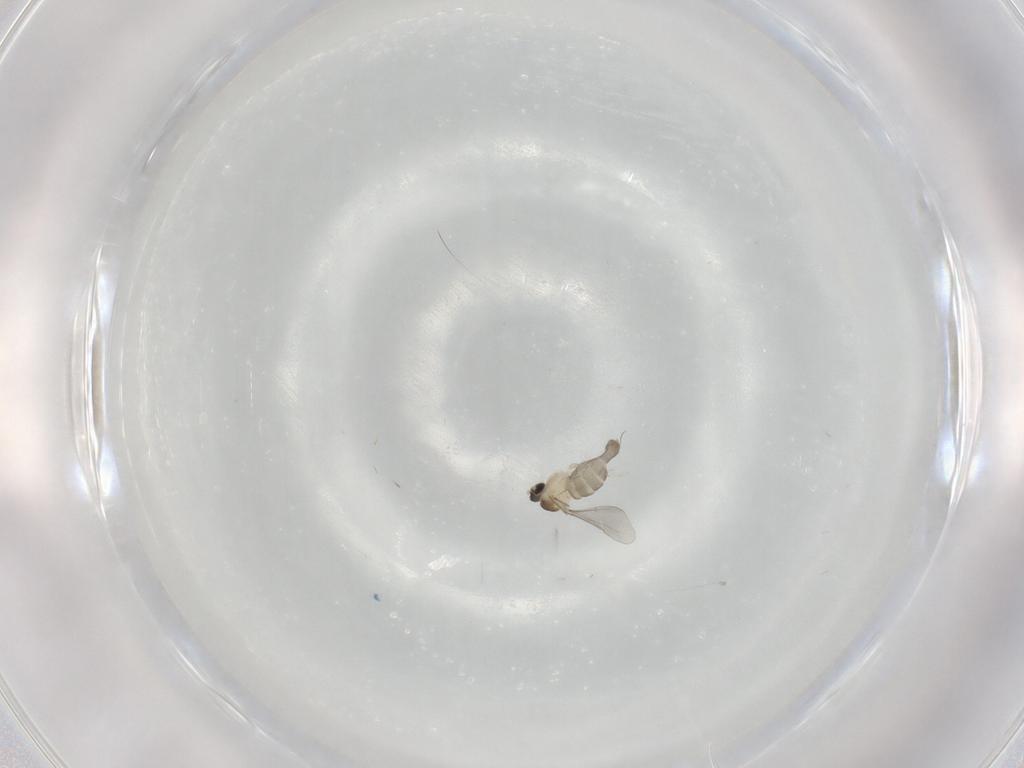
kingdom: Animalia
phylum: Arthropoda
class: Insecta
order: Diptera
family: Cecidomyiidae
